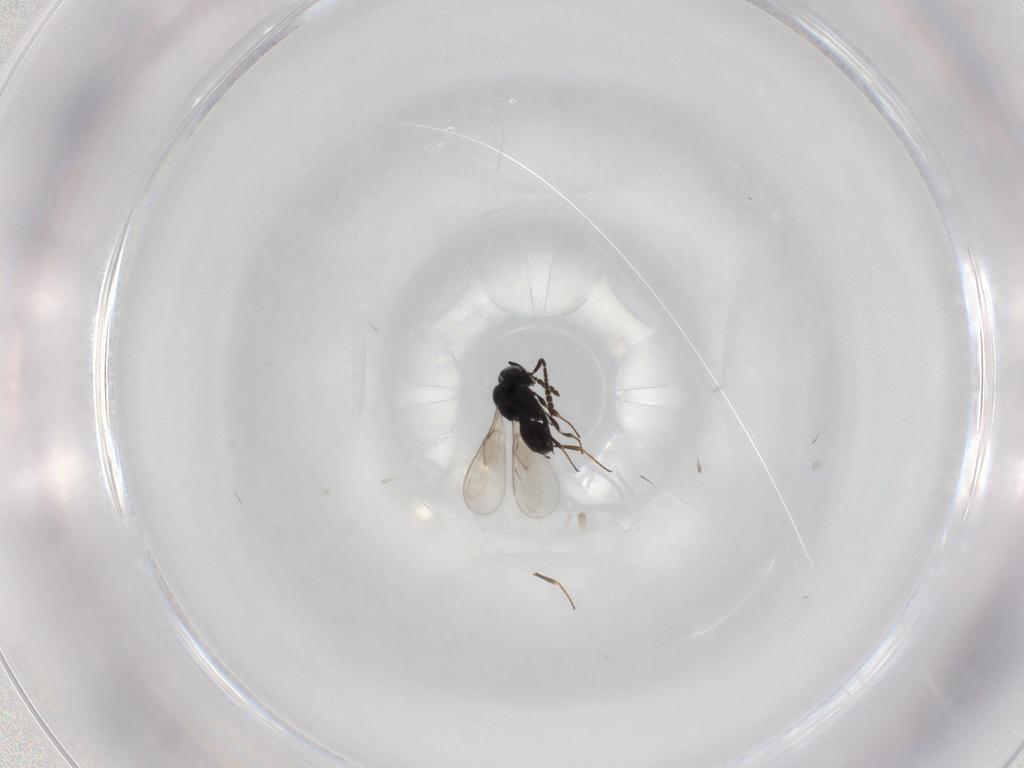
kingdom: Animalia
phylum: Arthropoda
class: Insecta
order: Hymenoptera
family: Scelionidae
